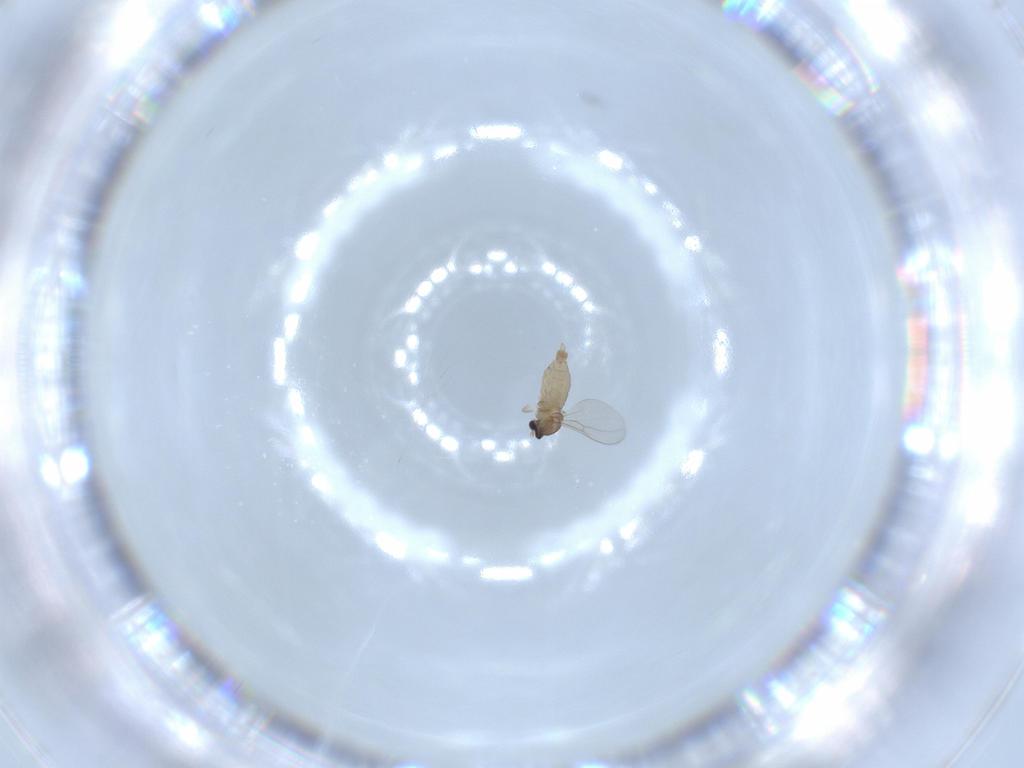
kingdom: Animalia
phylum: Arthropoda
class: Insecta
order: Diptera
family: Cecidomyiidae
